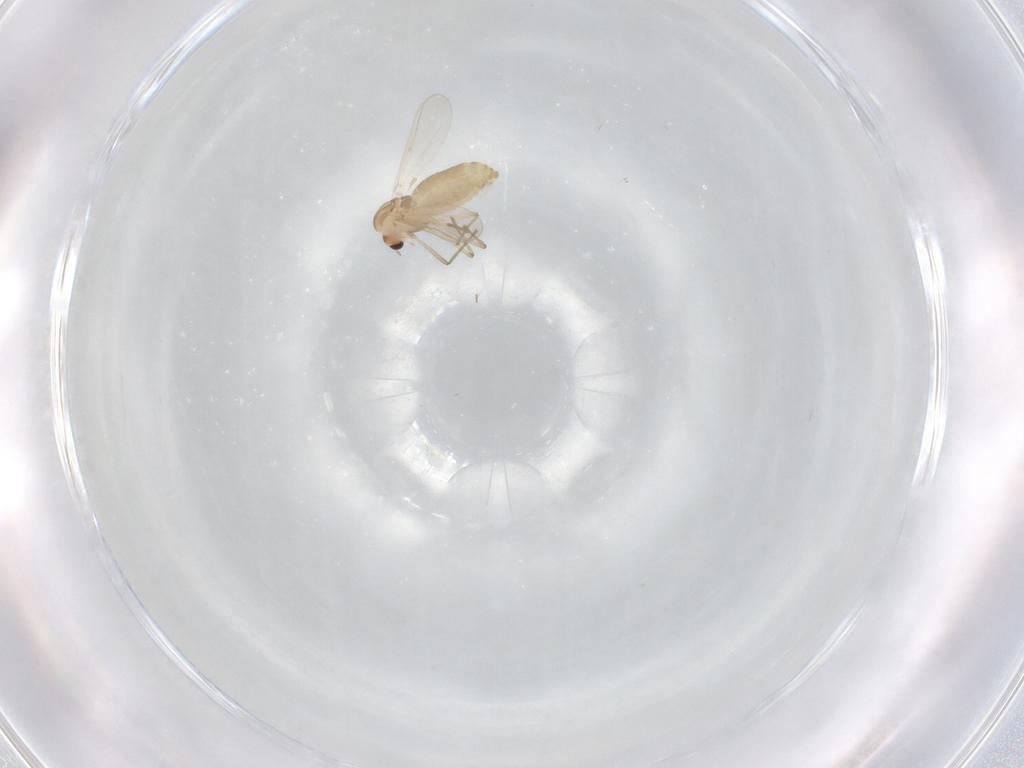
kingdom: Animalia
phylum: Arthropoda
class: Insecta
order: Diptera
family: Chironomidae
